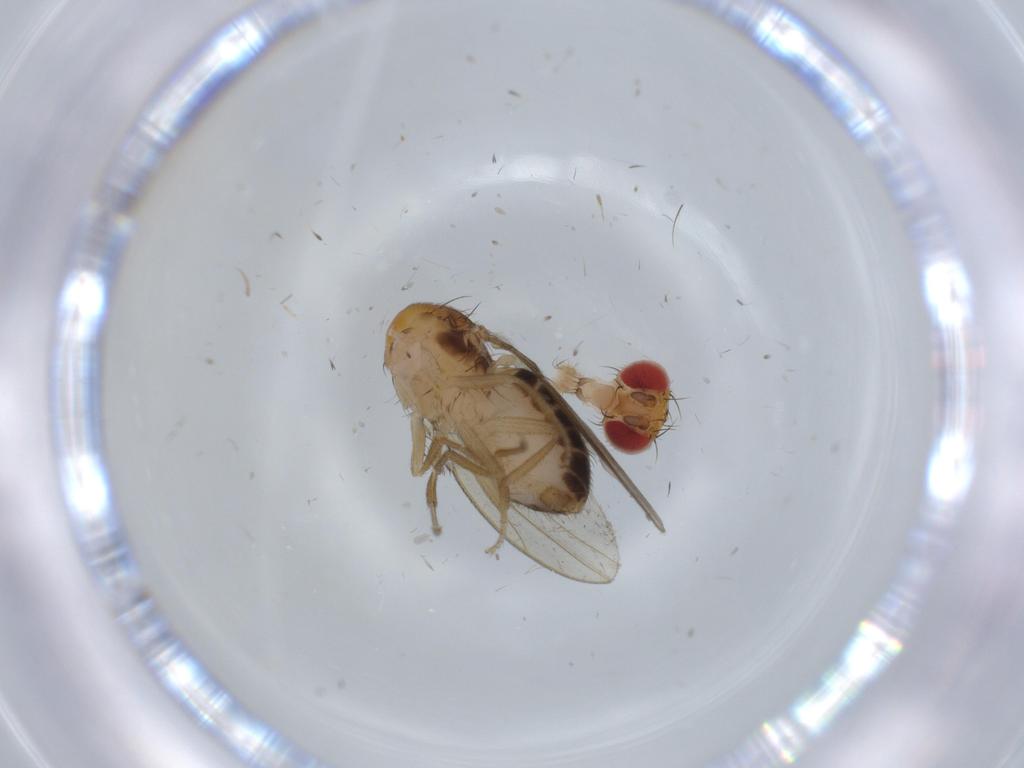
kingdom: Animalia
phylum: Arthropoda
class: Insecta
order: Diptera
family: Drosophilidae
